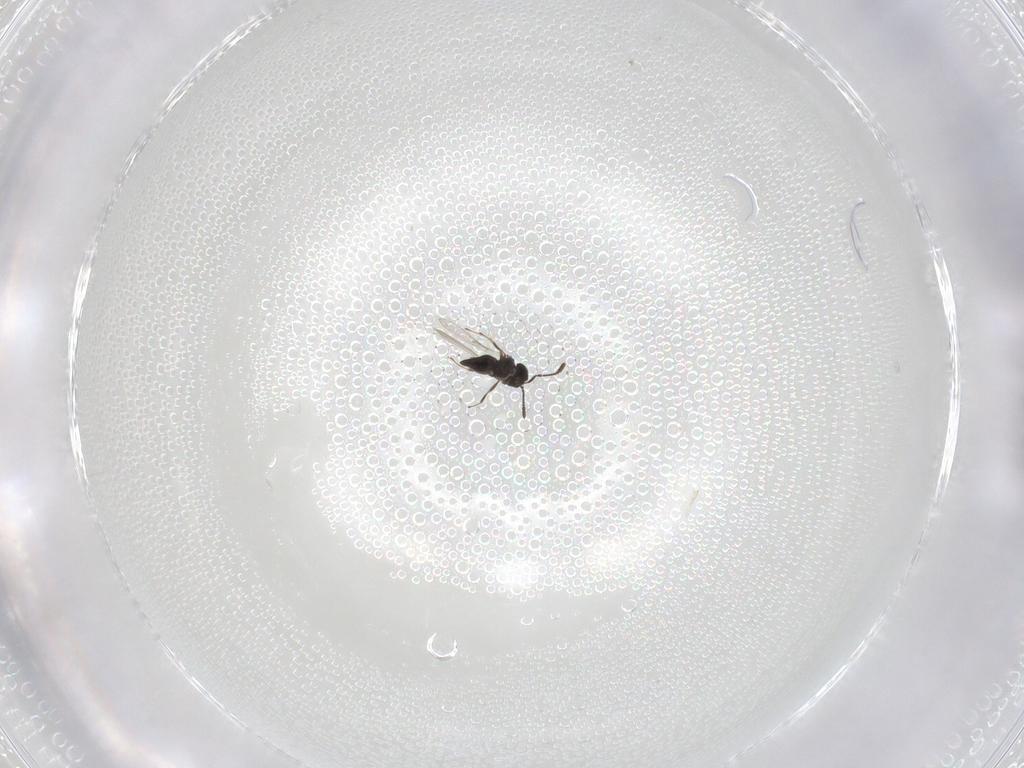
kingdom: Animalia
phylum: Arthropoda
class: Insecta
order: Hymenoptera
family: Scelionidae
